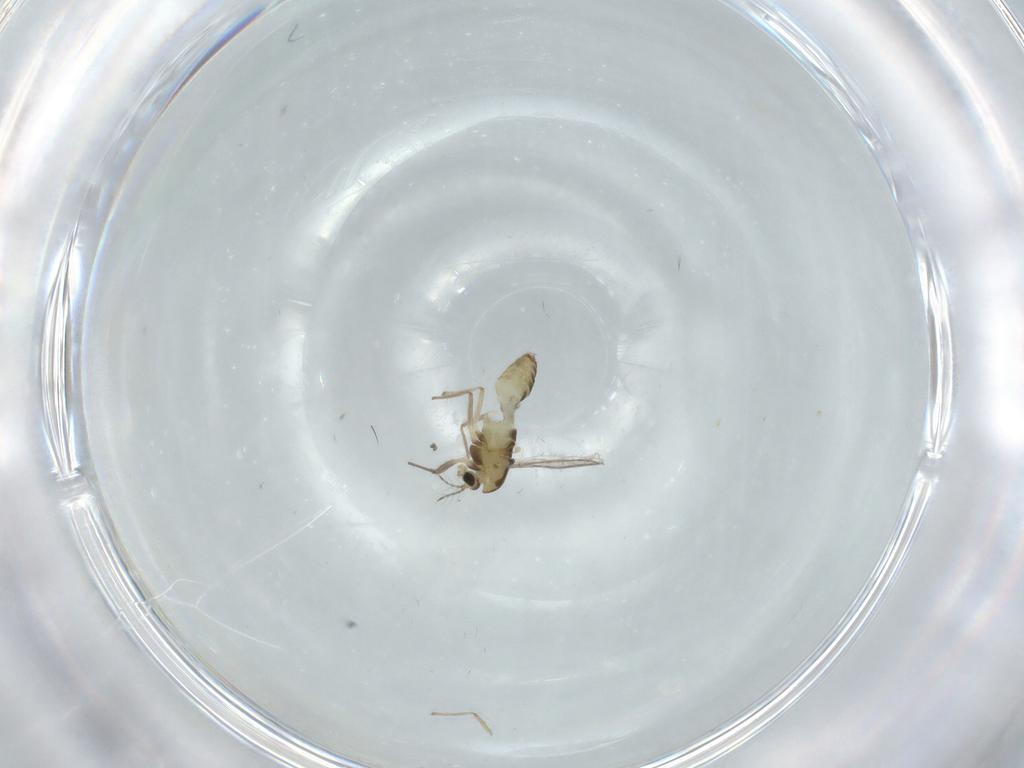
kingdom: Animalia
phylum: Arthropoda
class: Insecta
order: Diptera
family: Chironomidae
